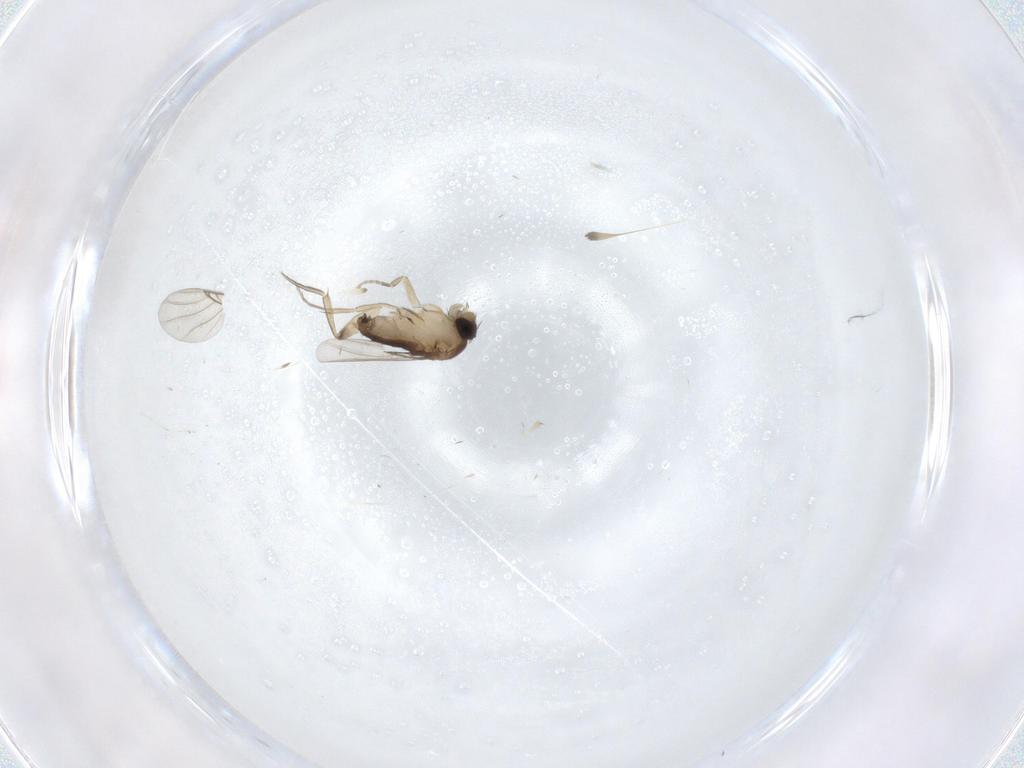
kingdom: Animalia
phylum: Arthropoda
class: Insecta
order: Diptera
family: Phoridae
